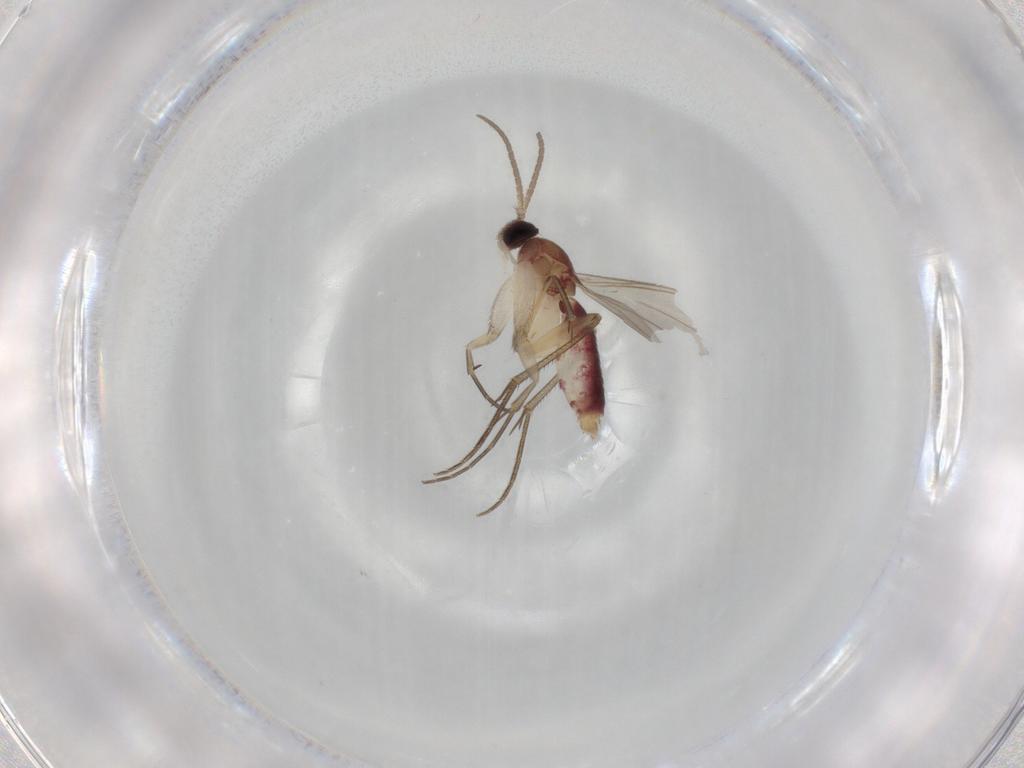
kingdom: Animalia
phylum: Arthropoda
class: Insecta
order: Diptera
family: Mycetophilidae
